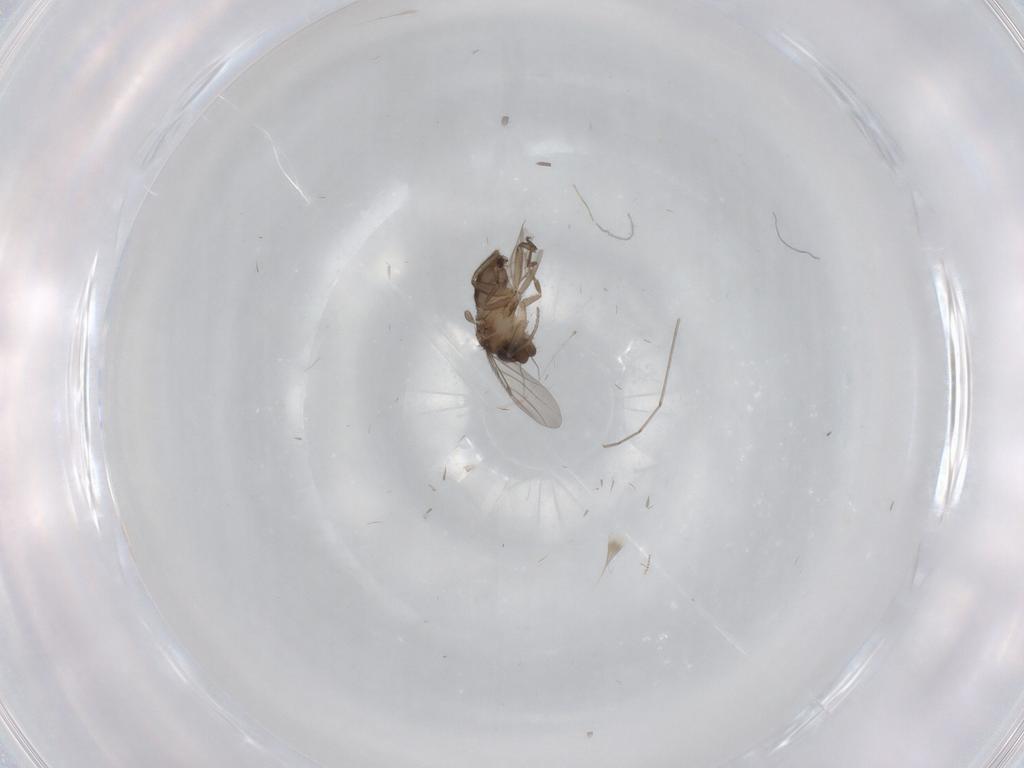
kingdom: Animalia
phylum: Arthropoda
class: Insecta
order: Diptera
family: Phoridae
